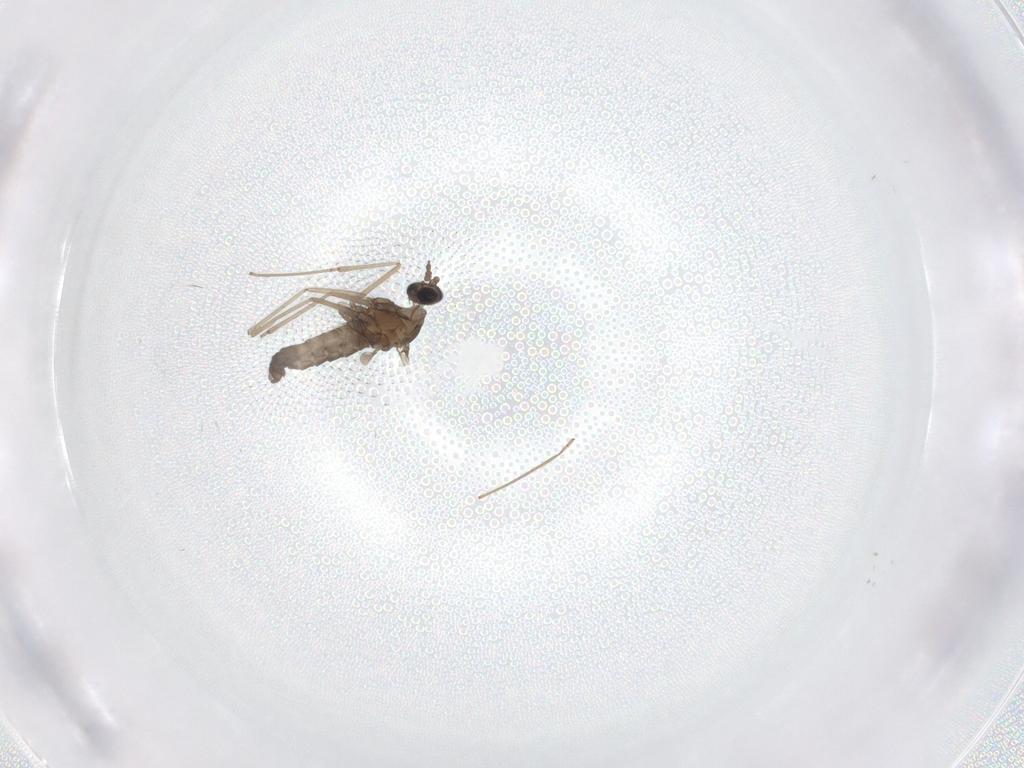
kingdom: Animalia
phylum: Arthropoda
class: Insecta
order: Diptera
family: Cecidomyiidae
